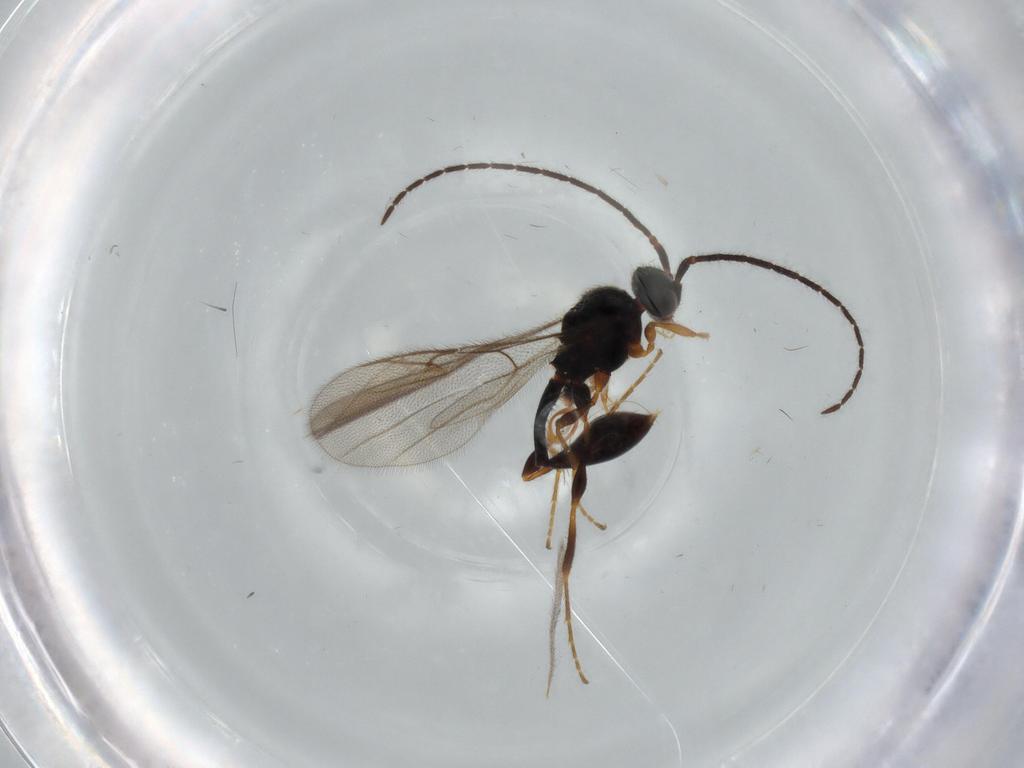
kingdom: Animalia
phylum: Arthropoda
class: Insecta
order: Hymenoptera
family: Diapriidae
